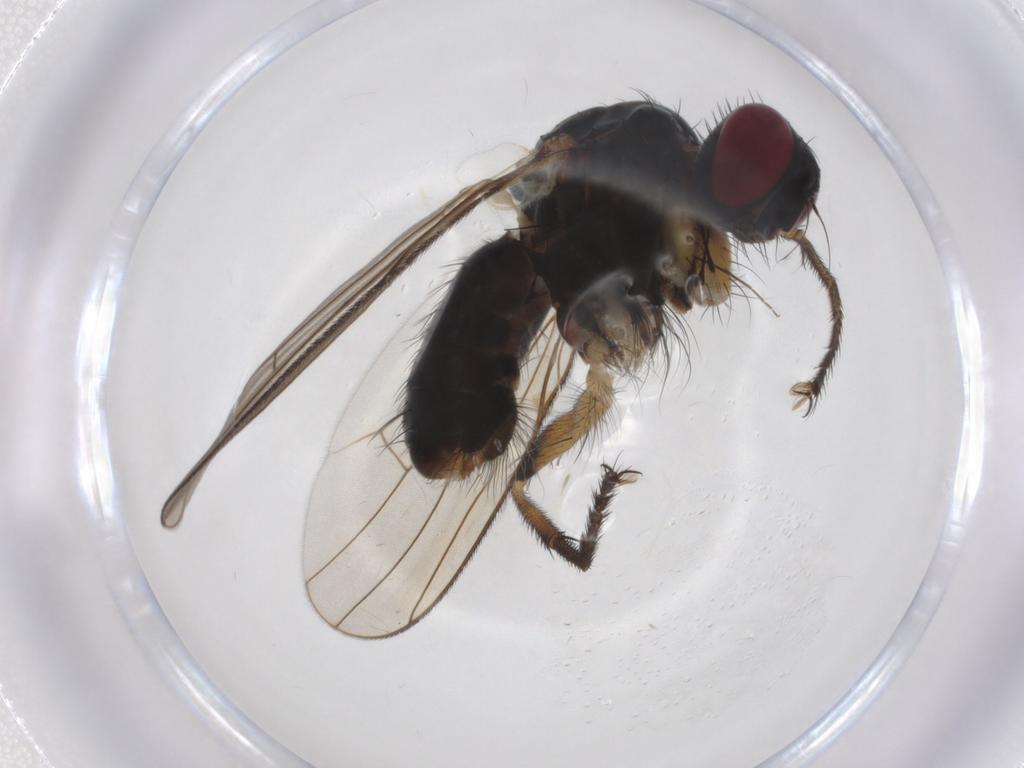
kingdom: Animalia
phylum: Arthropoda
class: Insecta
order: Diptera
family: Muscidae
